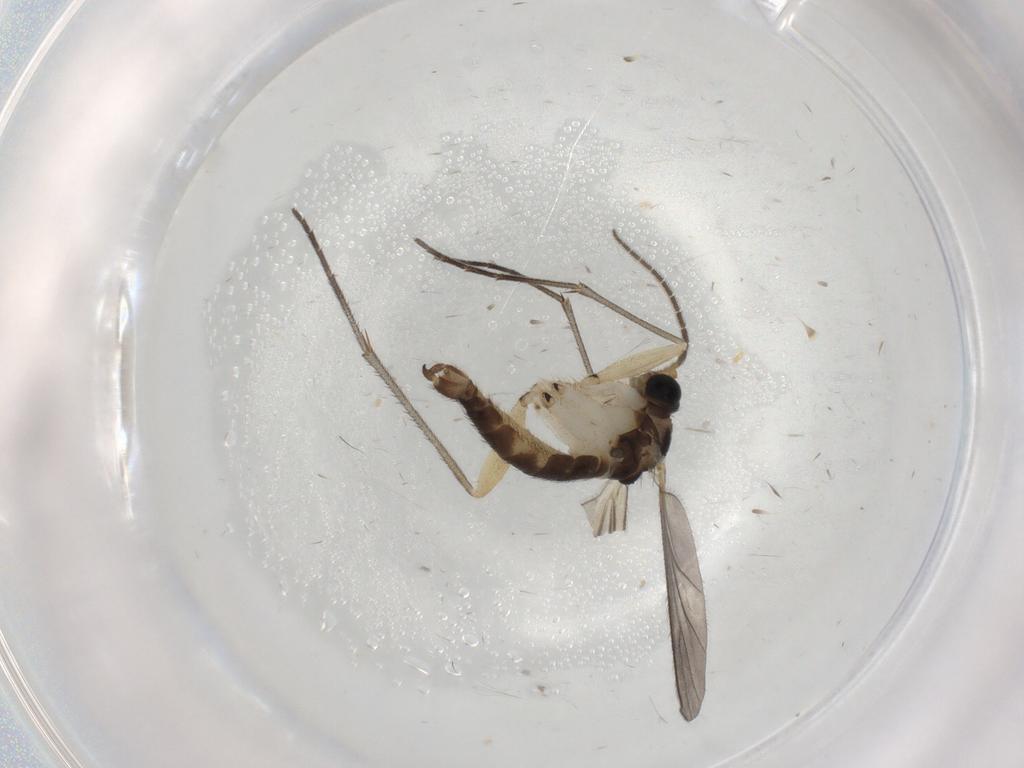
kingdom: Animalia
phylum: Arthropoda
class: Insecta
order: Diptera
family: Sciaridae
